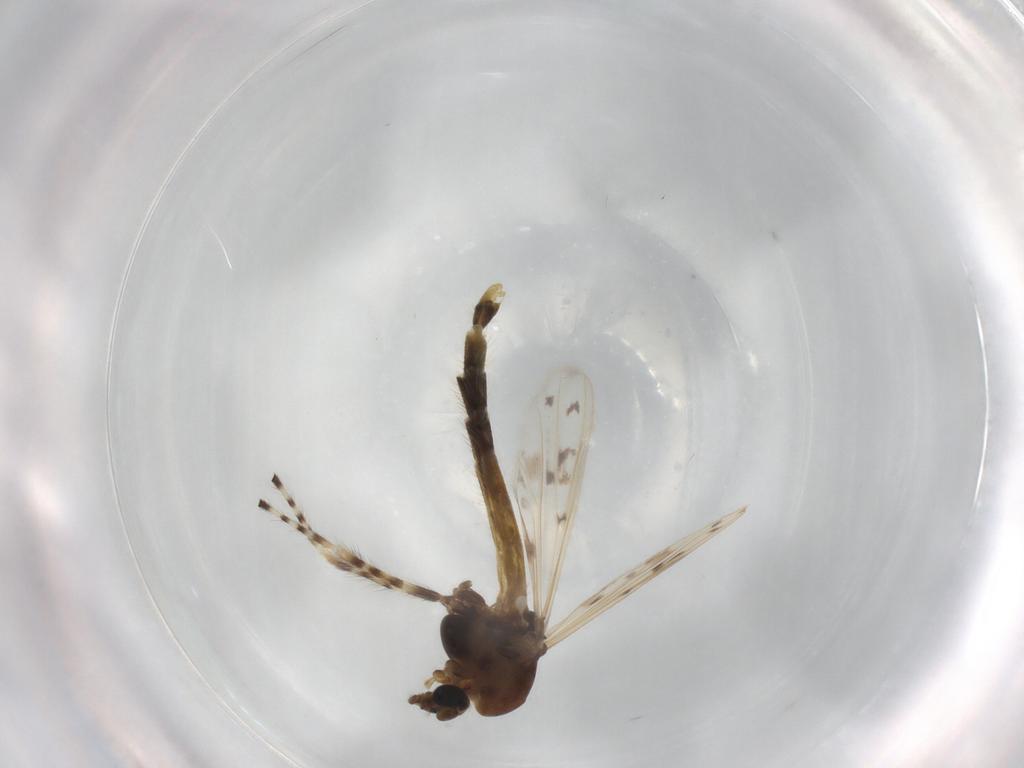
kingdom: Animalia
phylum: Arthropoda
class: Insecta
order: Diptera
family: Chironomidae
